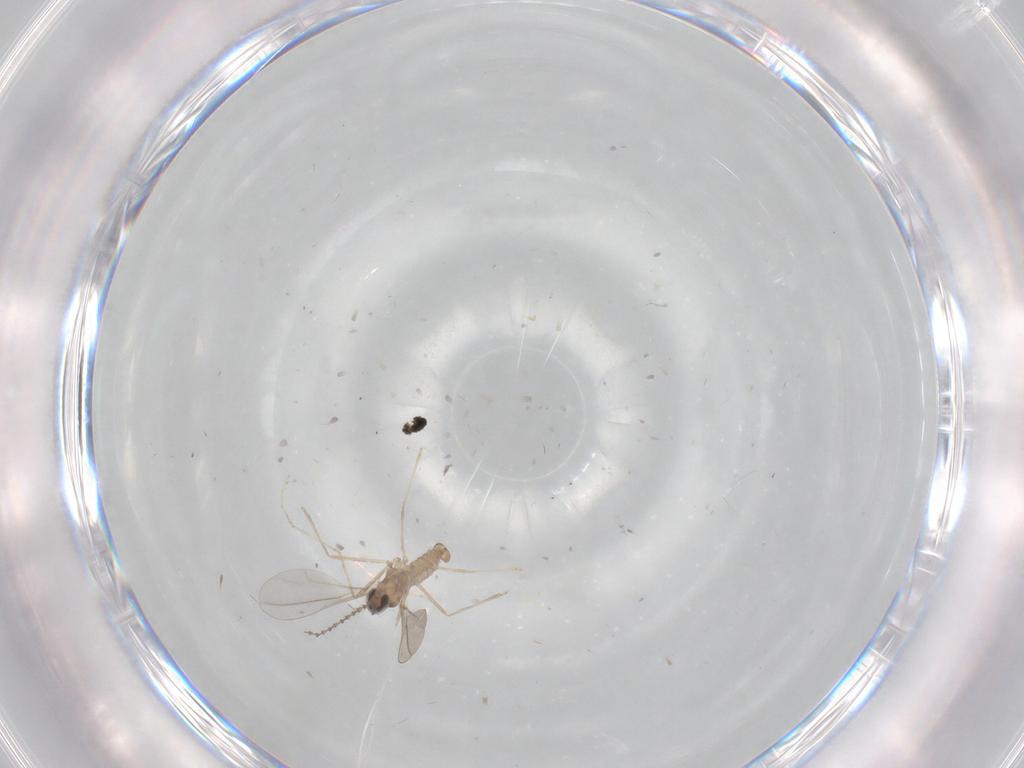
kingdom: Animalia
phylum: Arthropoda
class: Insecta
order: Diptera
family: Cecidomyiidae
